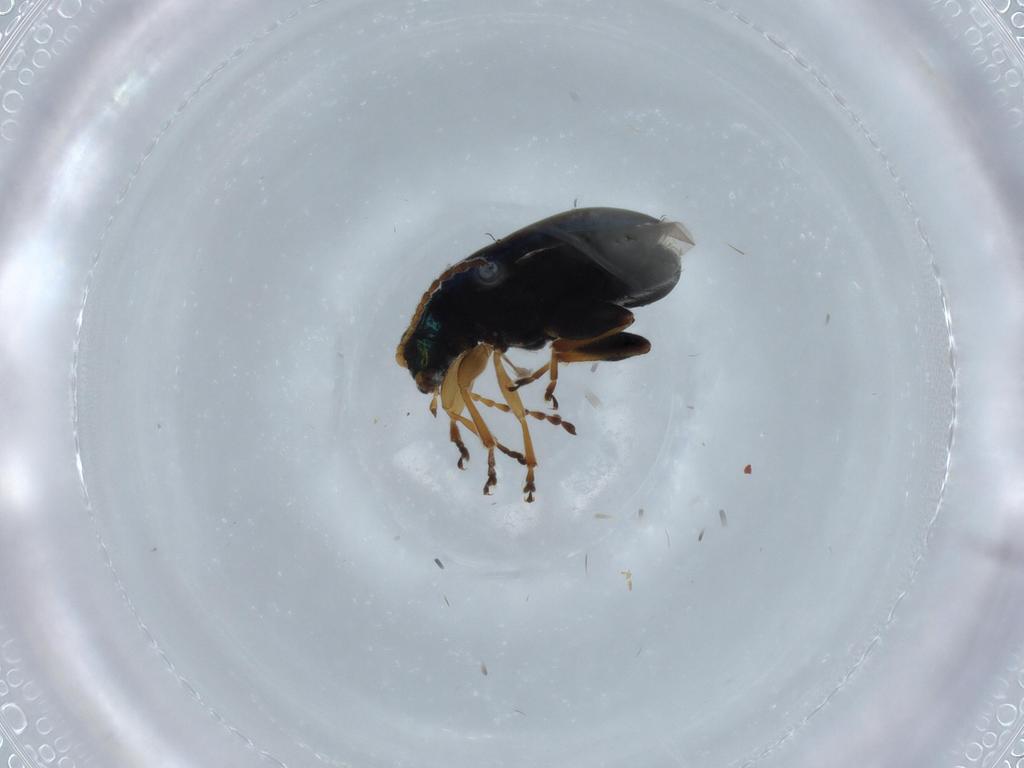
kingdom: Animalia
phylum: Arthropoda
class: Insecta
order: Coleoptera
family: Chrysomelidae
